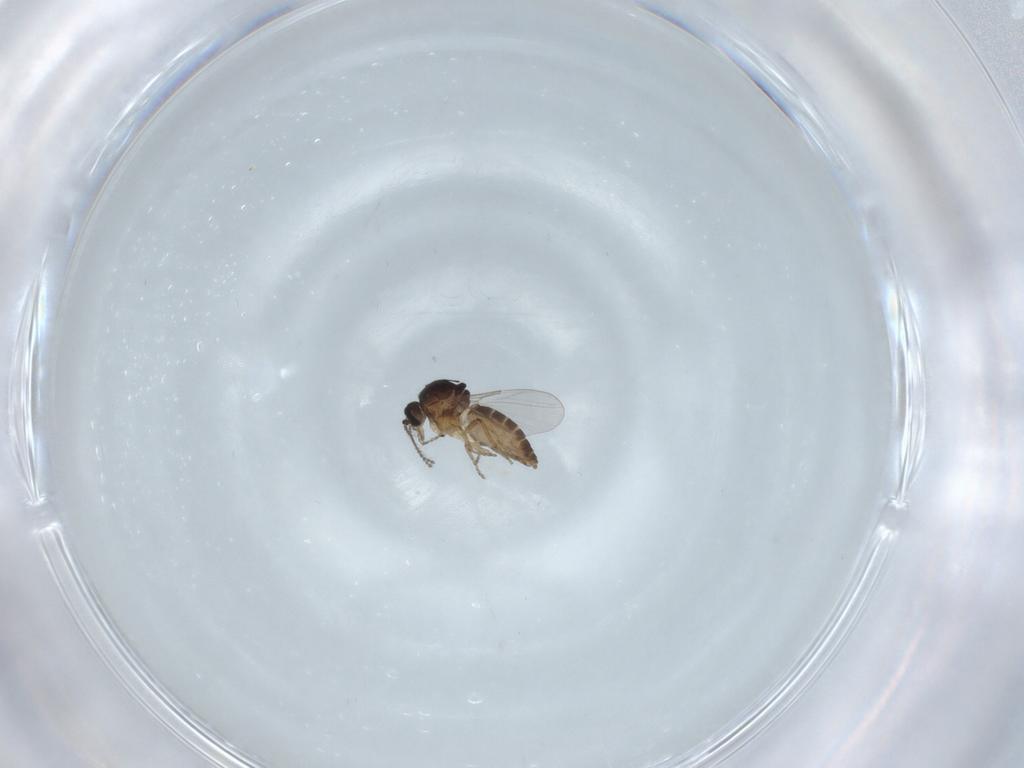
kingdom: Animalia
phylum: Arthropoda
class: Insecta
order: Diptera
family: Ceratopogonidae
